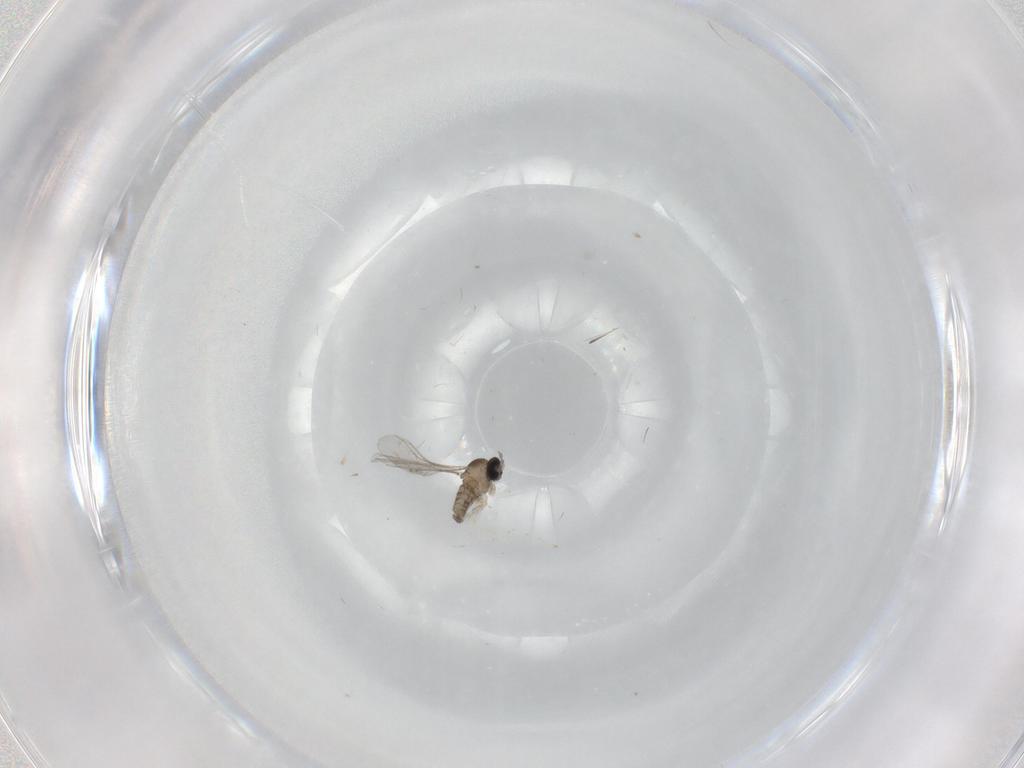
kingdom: Animalia
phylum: Arthropoda
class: Insecta
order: Diptera
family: Cecidomyiidae
